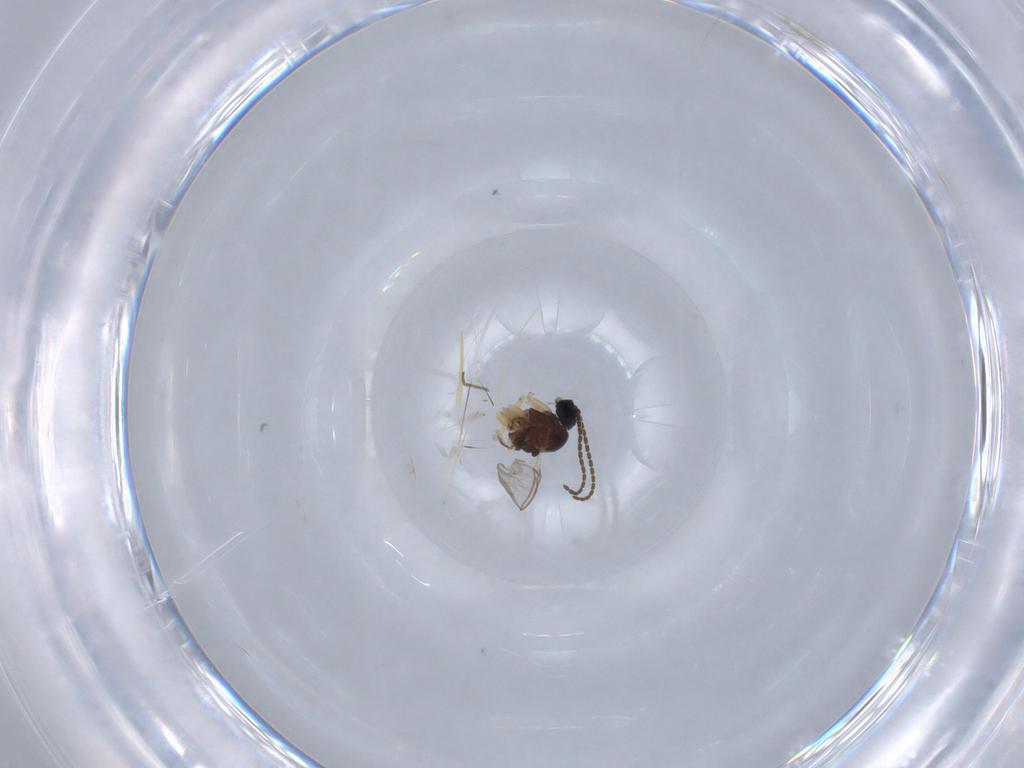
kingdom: Animalia
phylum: Arthropoda
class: Insecta
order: Diptera
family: Sciaridae
